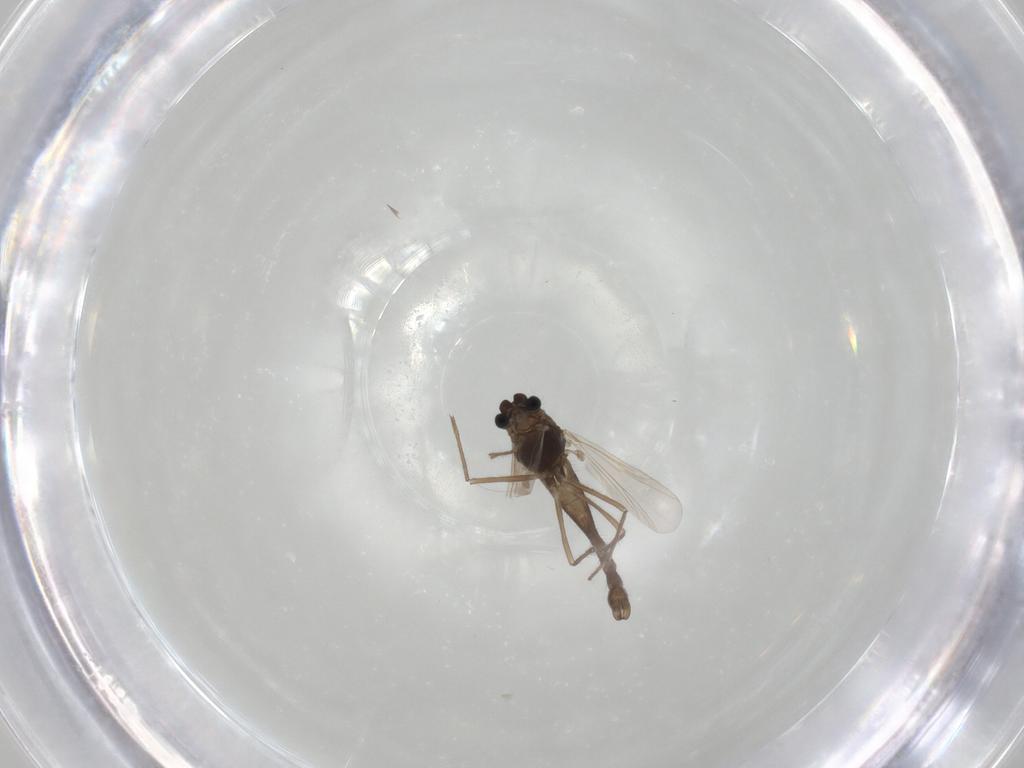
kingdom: Animalia
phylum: Arthropoda
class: Insecta
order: Diptera
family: Chironomidae
